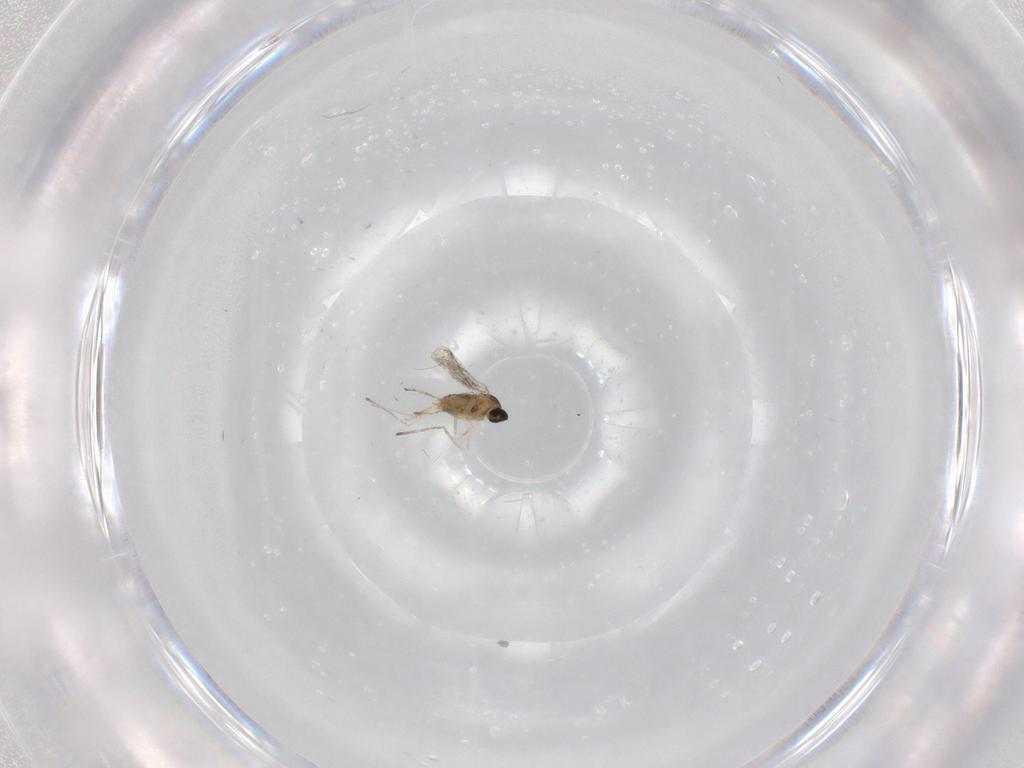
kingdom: Animalia
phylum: Arthropoda
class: Insecta
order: Diptera
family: Cecidomyiidae
